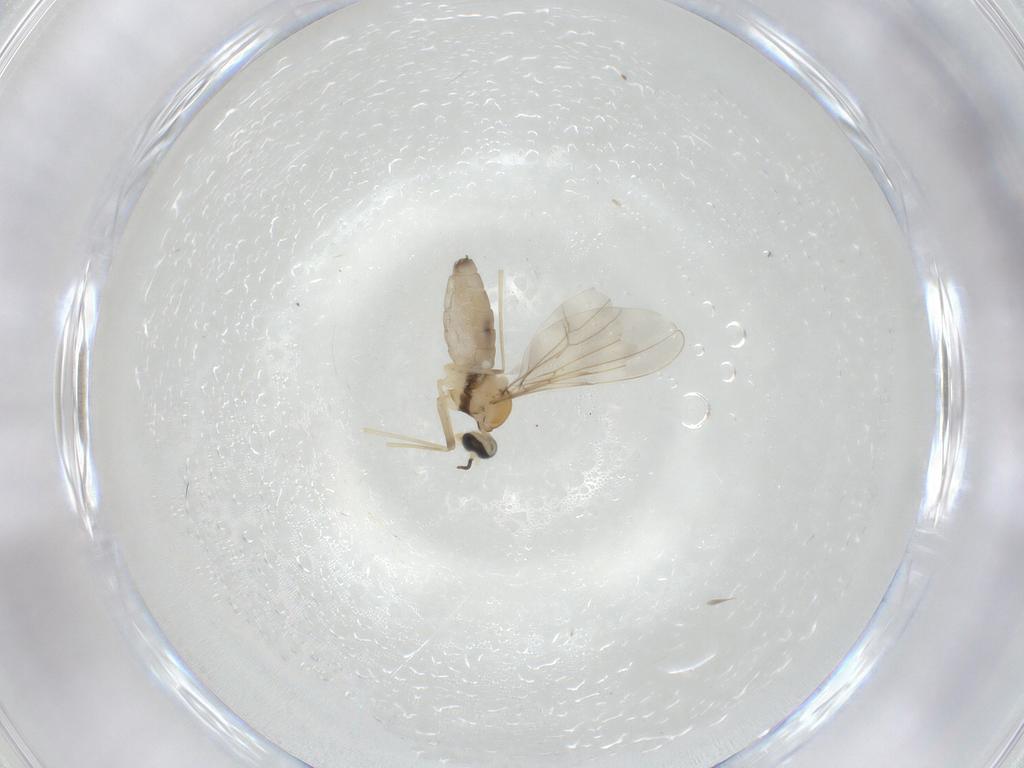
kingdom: Animalia
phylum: Arthropoda
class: Insecta
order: Diptera
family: Cecidomyiidae
